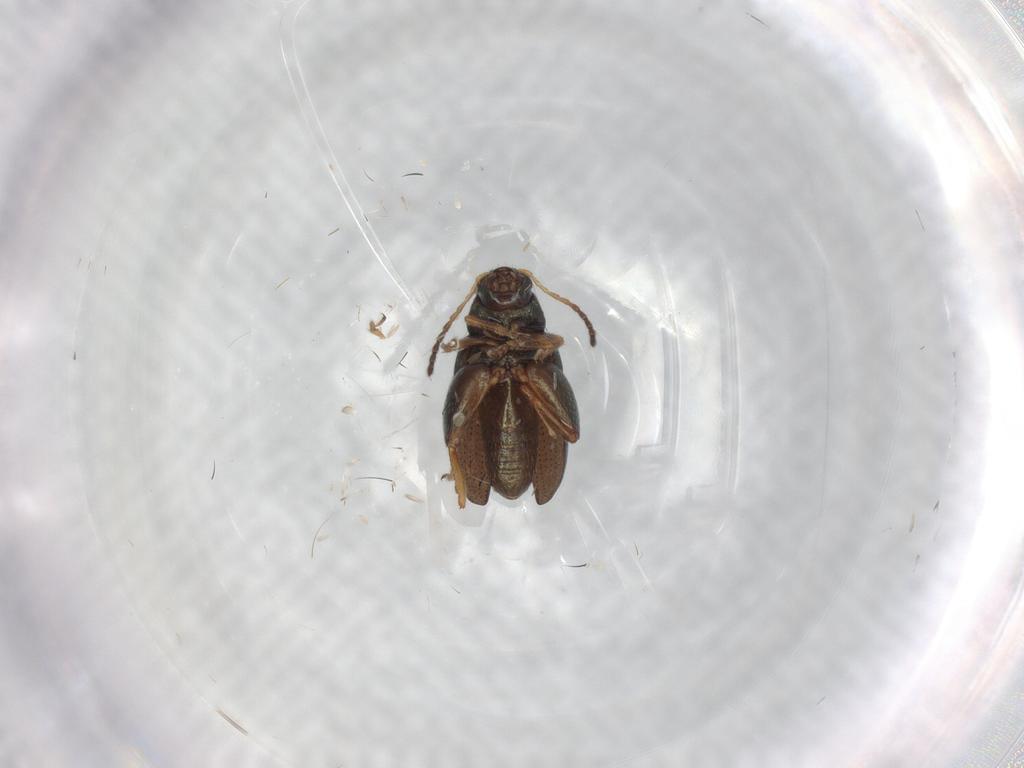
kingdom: Animalia
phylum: Arthropoda
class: Insecta
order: Coleoptera
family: Chrysomelidae
